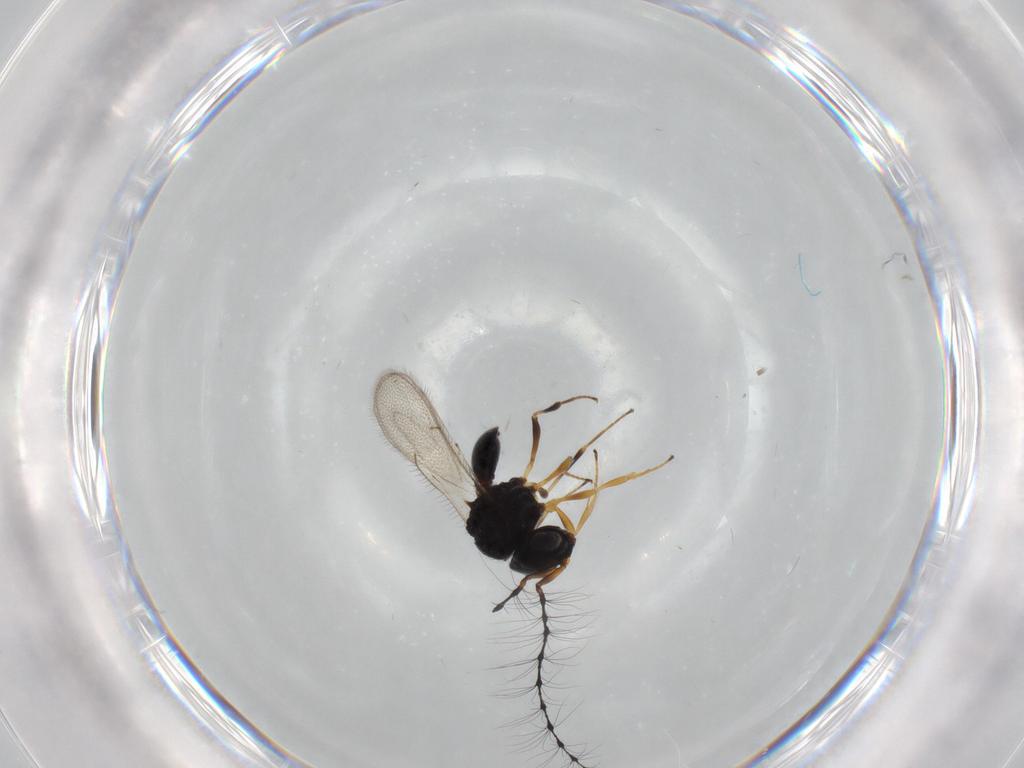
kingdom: Animalia
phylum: Arthropoda
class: Insecta
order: Hymenoptera
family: Scelionidae
